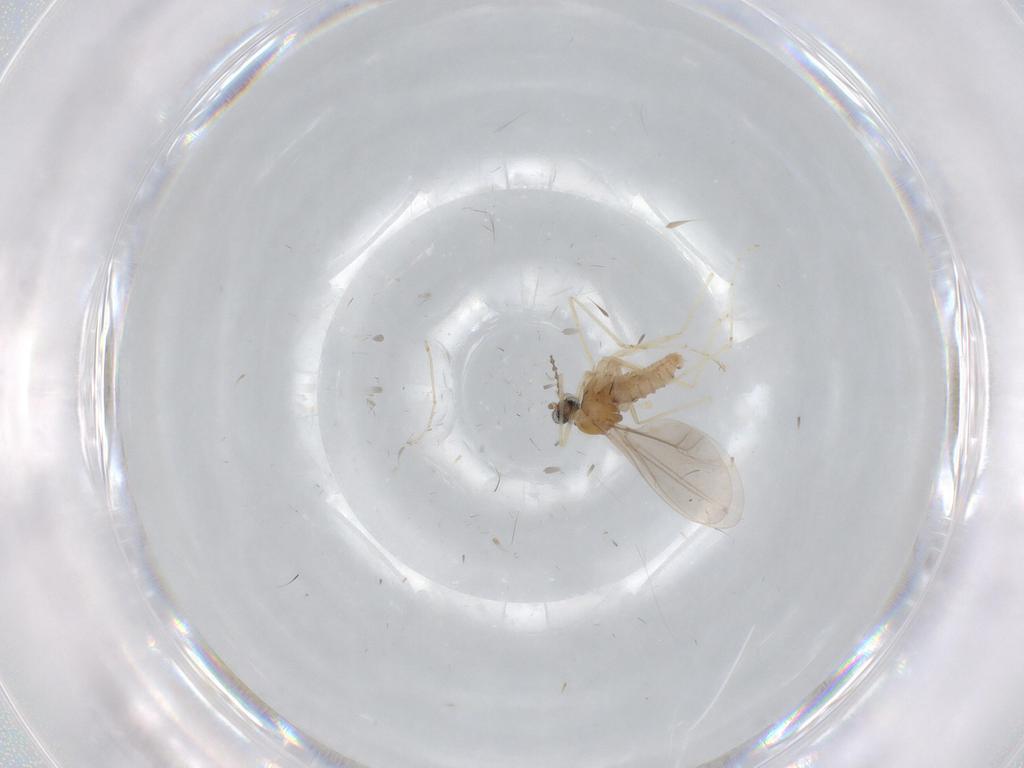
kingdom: Animalia
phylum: Arthropoda
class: Insecta
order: Diptera
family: Cecidomyiidae
